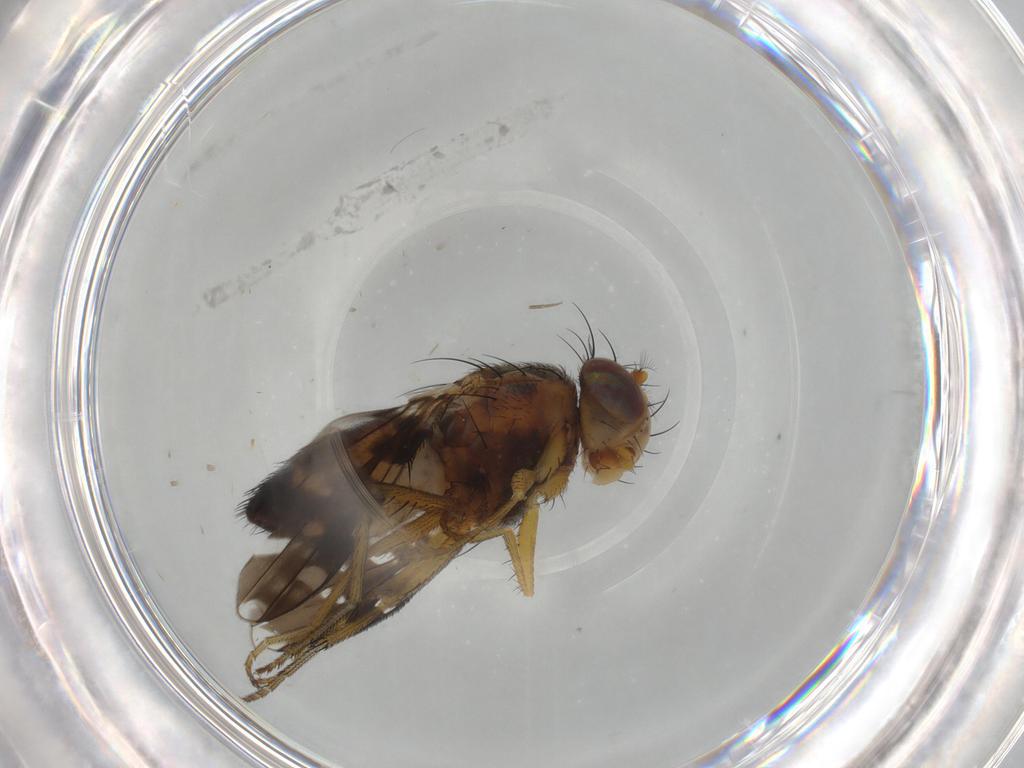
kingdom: Animalia
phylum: Arthropoda
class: Insecta
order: Diptera
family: Ephydridae
